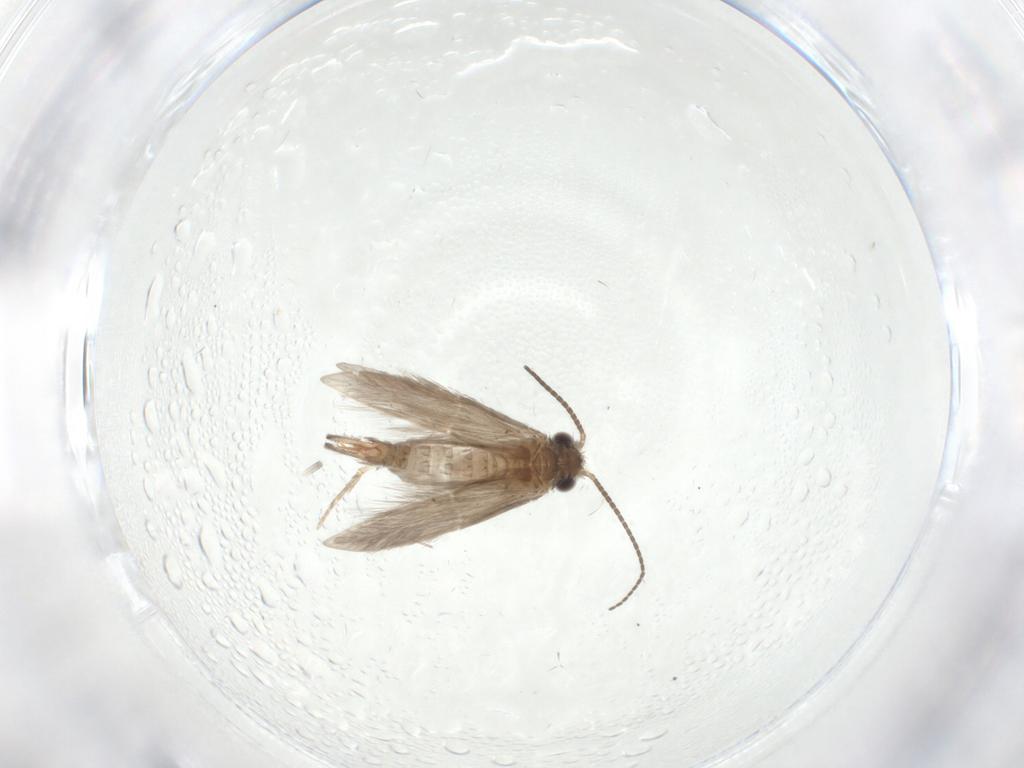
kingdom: Animalia
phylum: Arthropoda
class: Insecta
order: Trichoptera
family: Hydroptilidae
